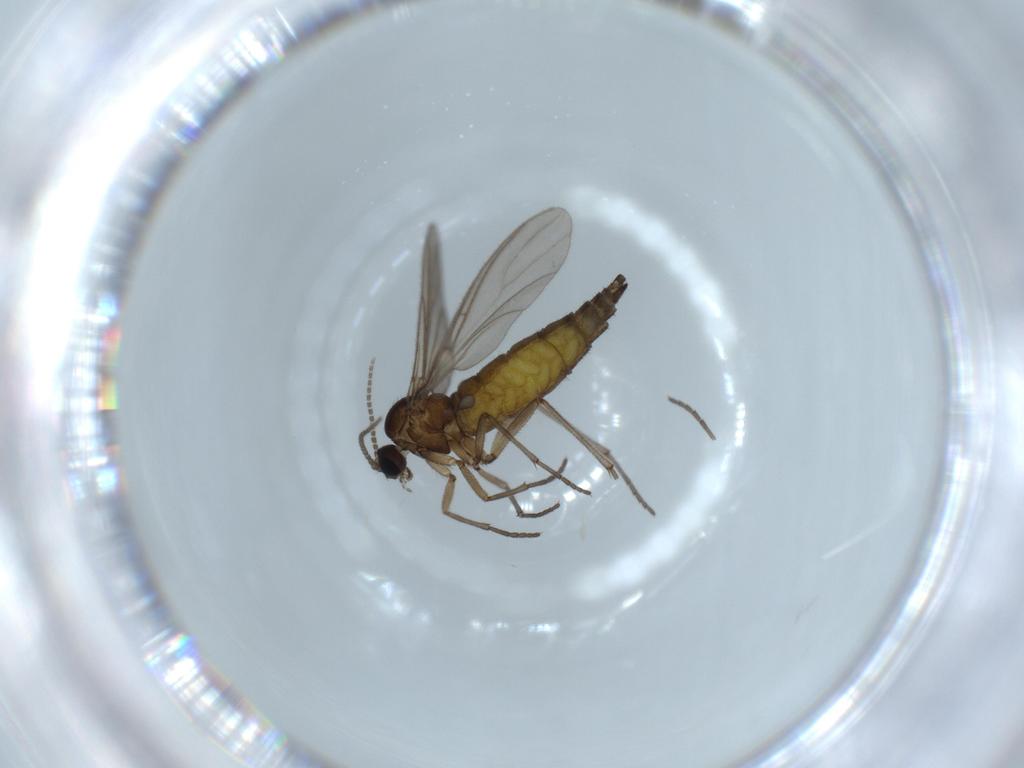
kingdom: Animalia
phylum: Arthropoda
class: Insecta
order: Diptera
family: Sciaridae
